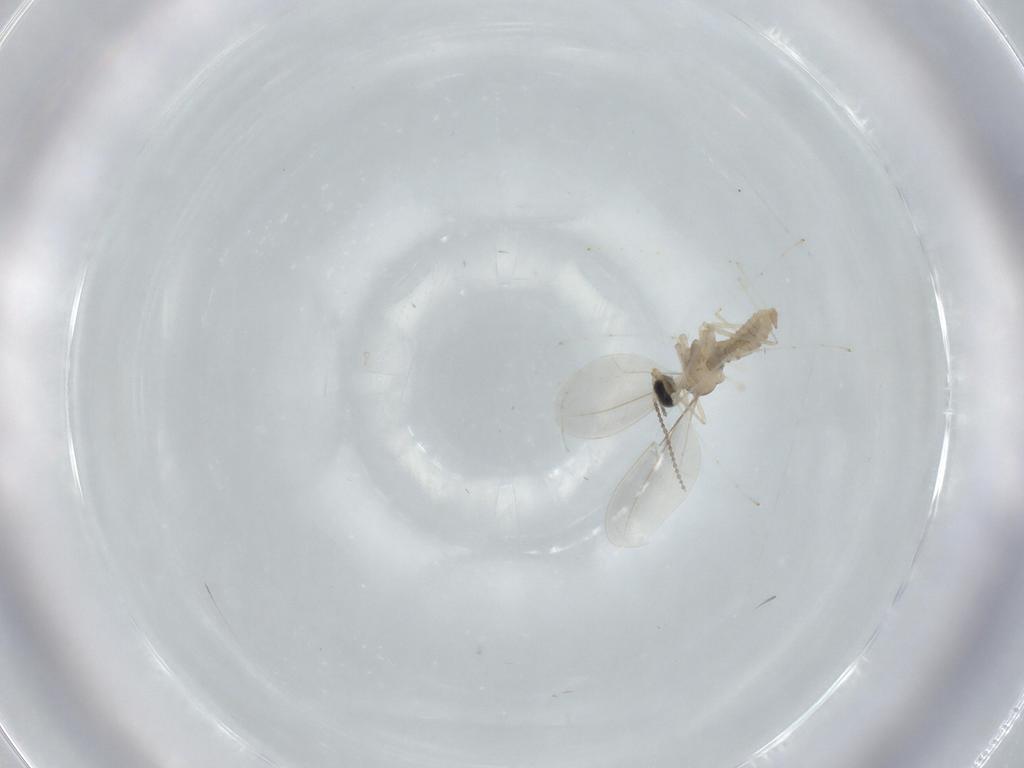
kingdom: Animalia
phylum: Arthropoda
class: Insecta
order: Diptera
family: Cecidomyiidae
